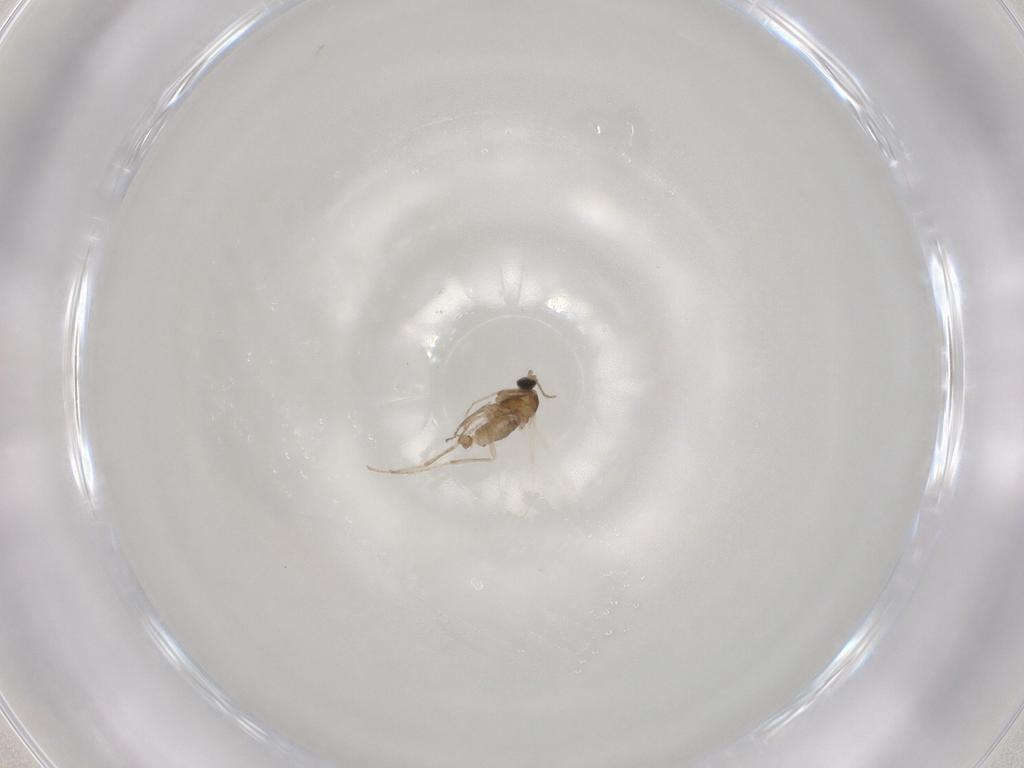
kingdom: Animalia
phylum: Arthropoda
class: Insecta
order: Diptera
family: Cecidomyiidae
